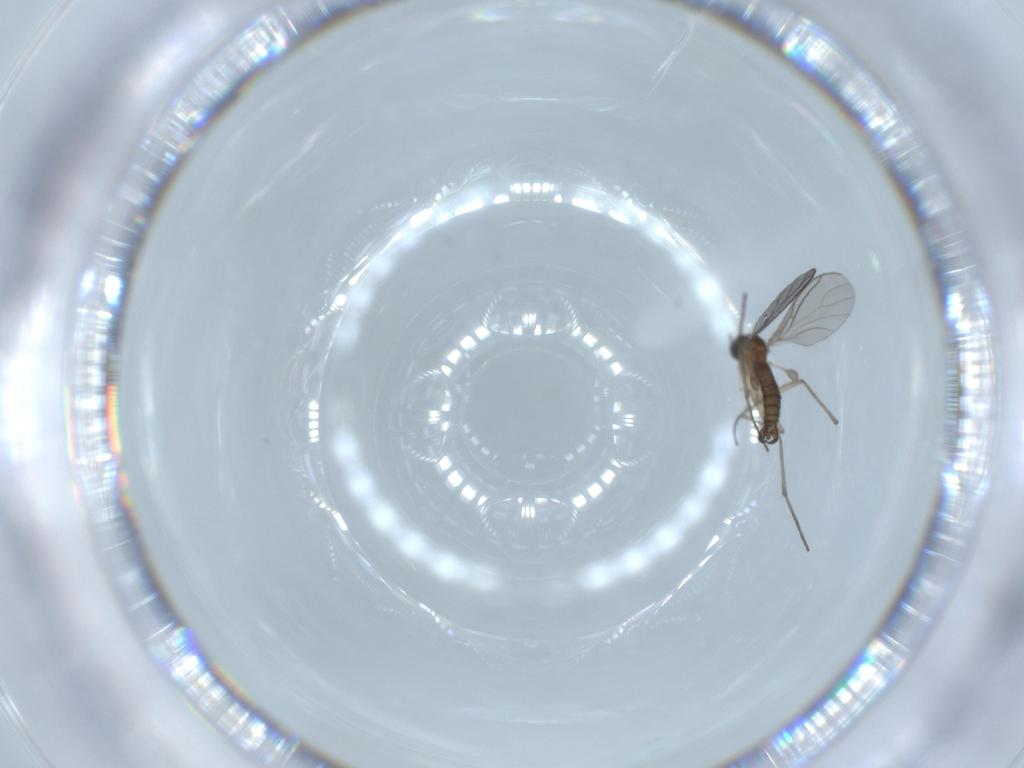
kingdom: Animalia
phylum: Arthropoda
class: Insecta
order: Diptera
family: Sciaridae
